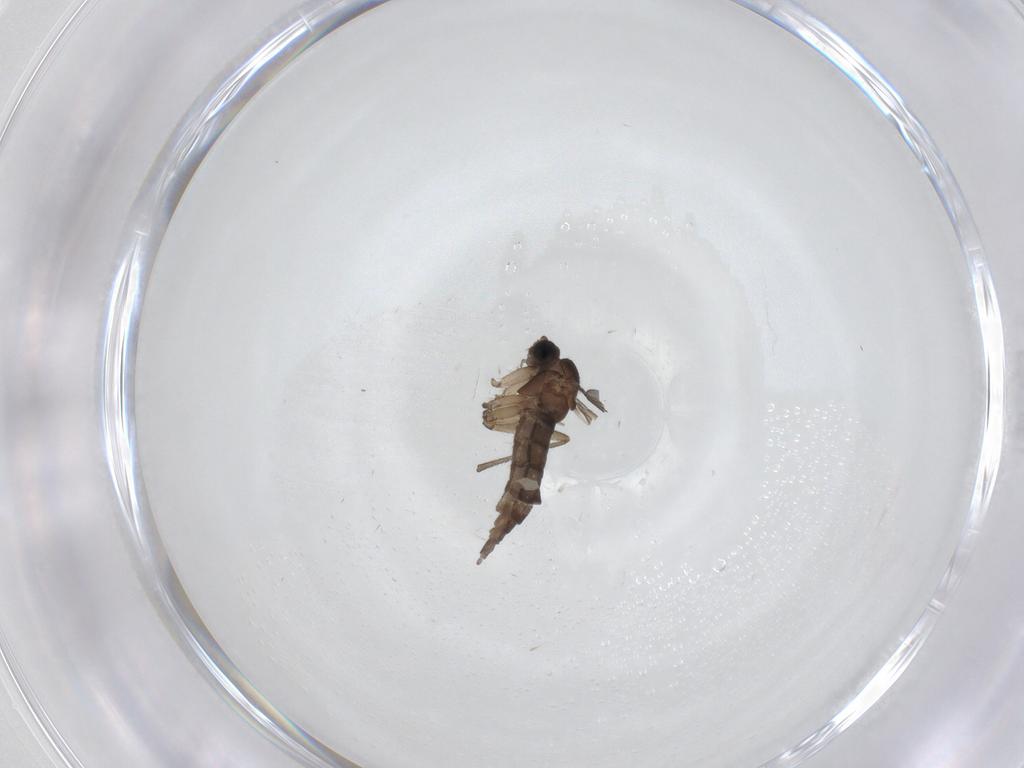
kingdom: Animalia
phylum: Arthropoda
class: Insecta
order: Diptera
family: Sciaridae
